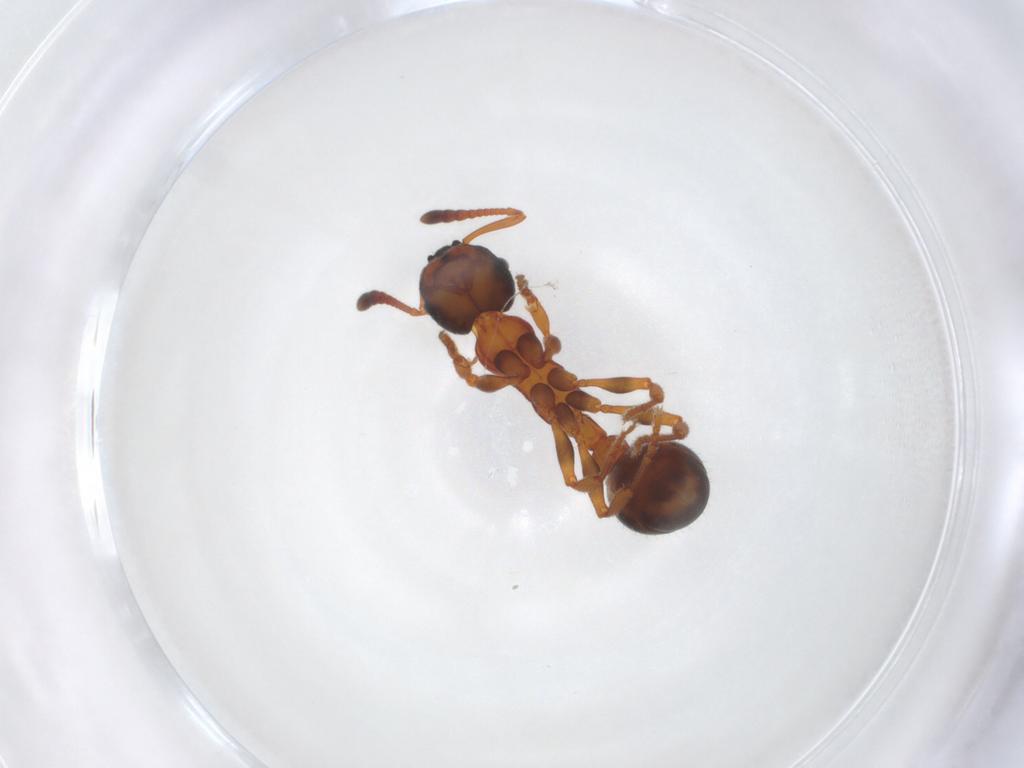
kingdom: Animalia
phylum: Arthropoda
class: Insecta
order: Hymenoptera
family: Formicidae
